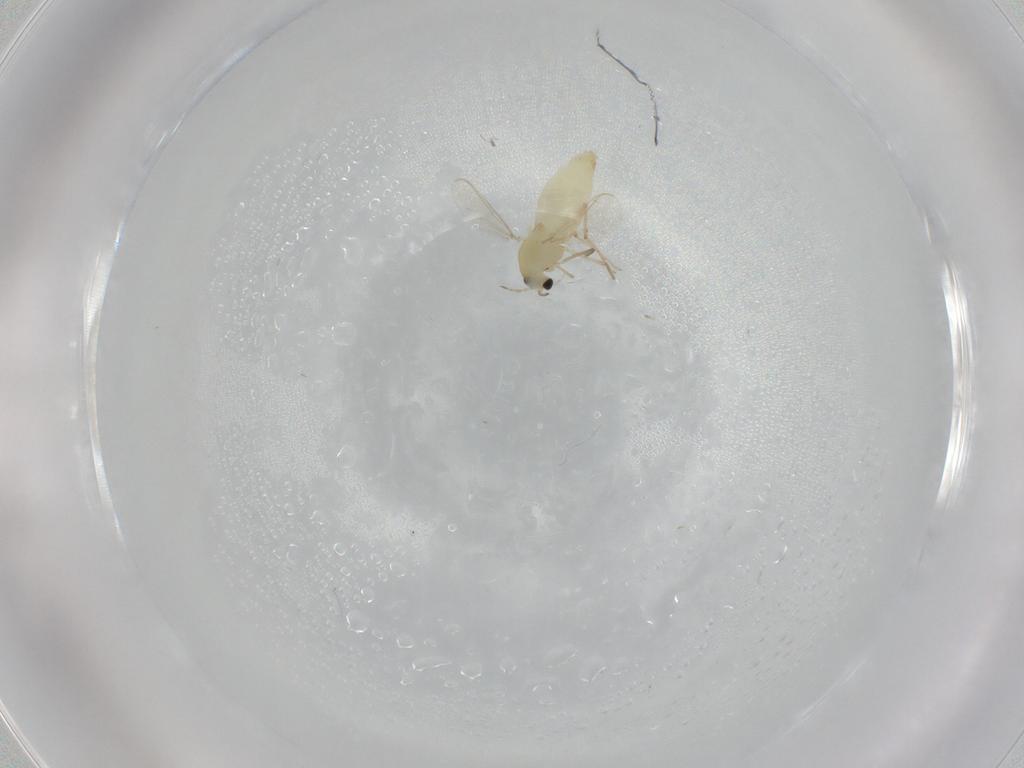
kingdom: Animalia
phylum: Arthropoda
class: Insecta
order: Diptera
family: Chironomidae
